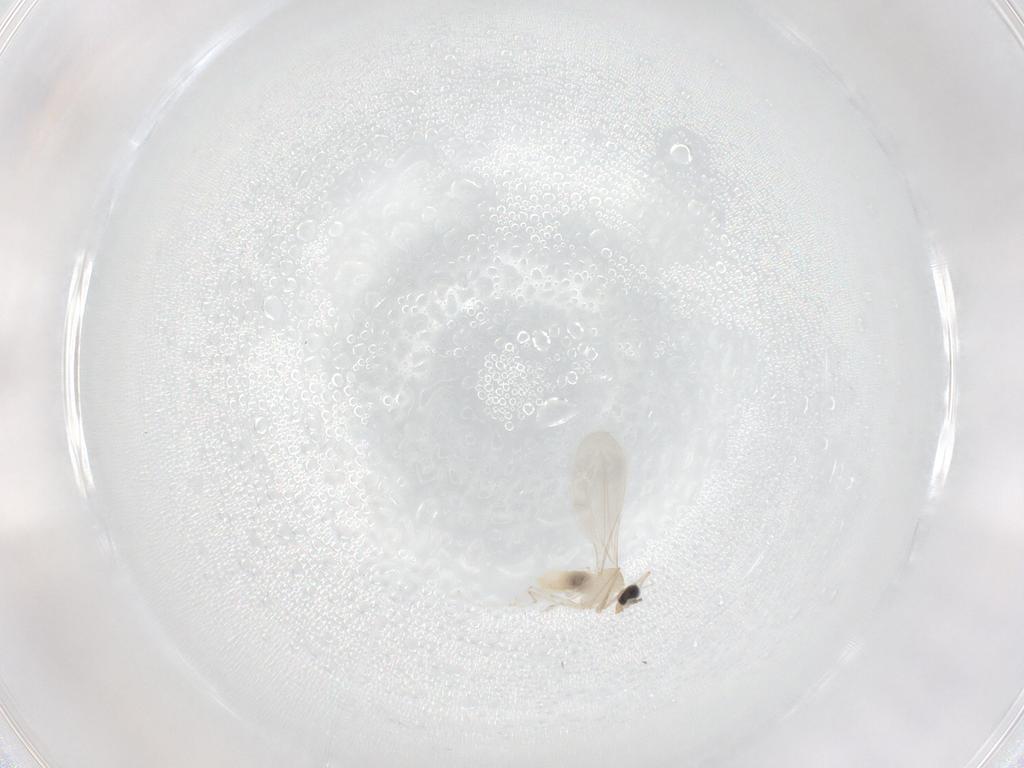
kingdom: Animalia
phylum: Arthropoda
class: Insecta
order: Diptera
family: Cecidomyiidae
